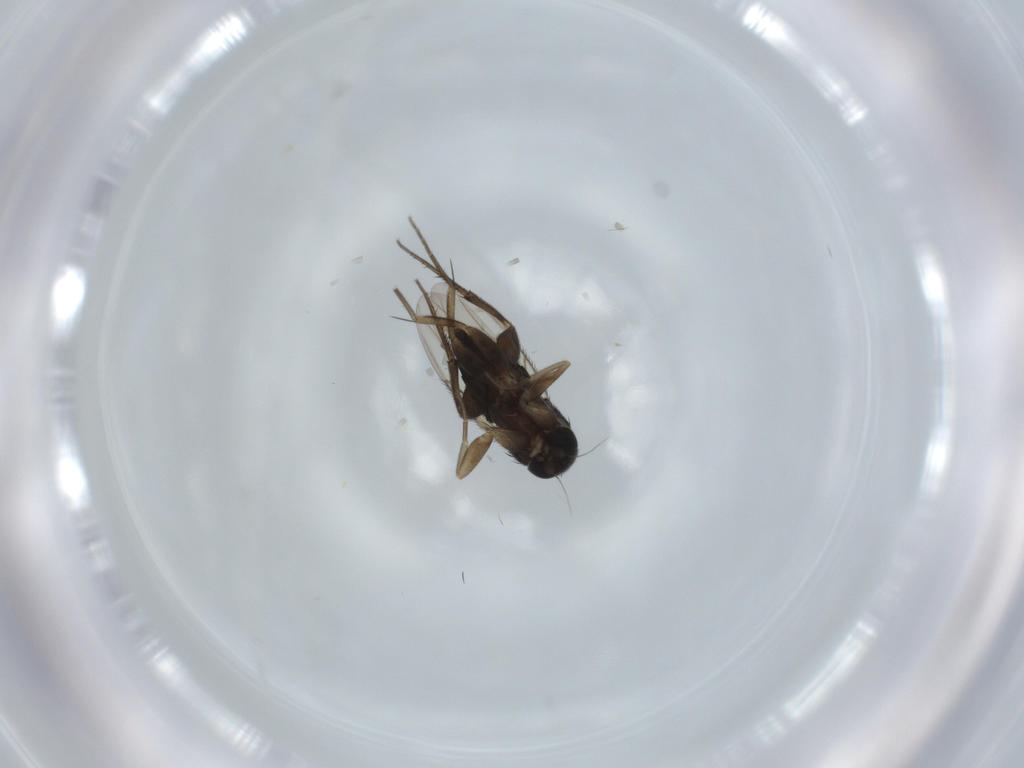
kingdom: Animalia
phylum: Arthropoda
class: Insecta
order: Diptera
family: Phoridae
